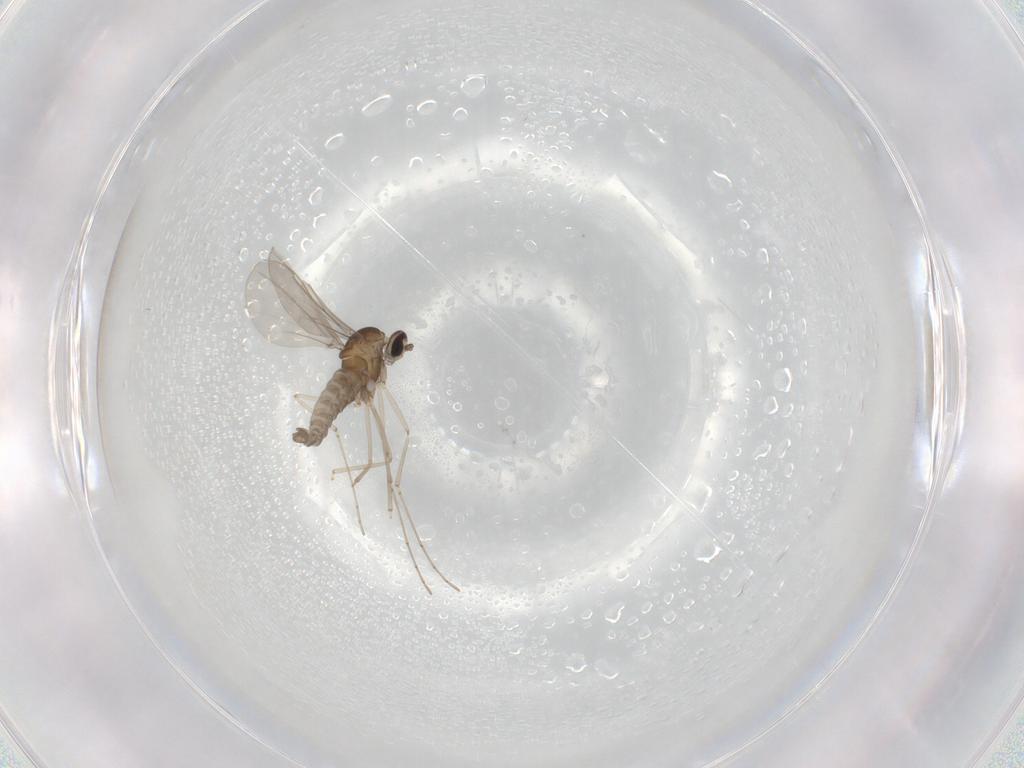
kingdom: Animalia
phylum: Arthropoda
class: Insecta
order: Diptera
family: Cecidomyiidae
